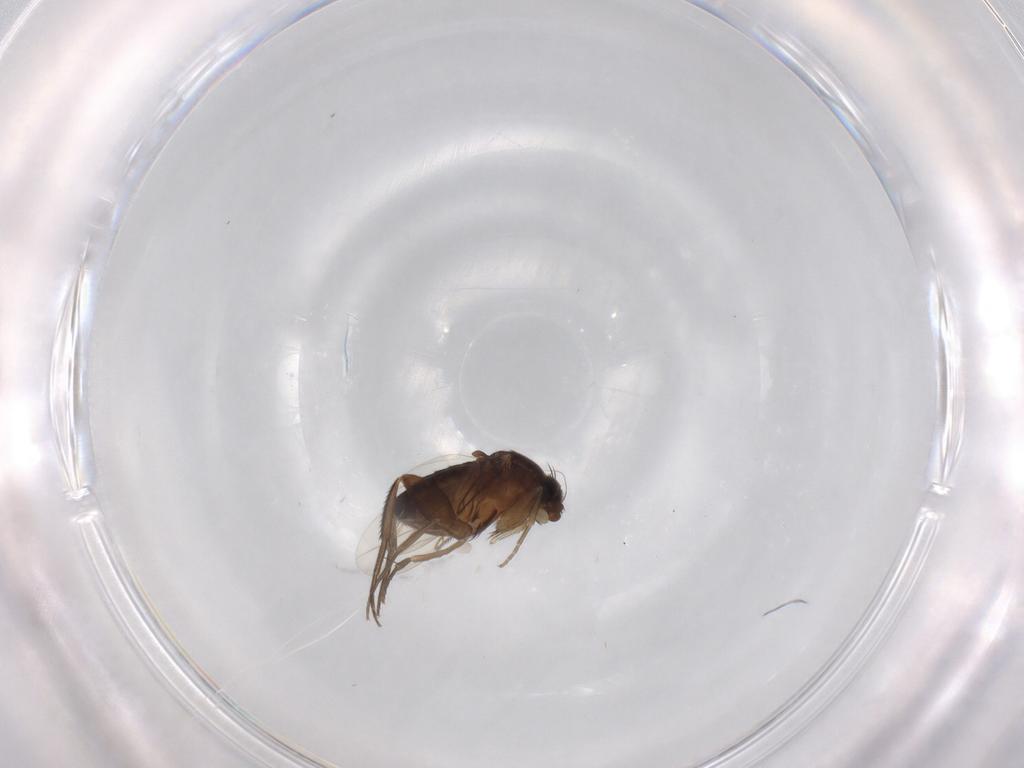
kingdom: Animalia
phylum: Arthropoda
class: Insecta
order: Diptera
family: Phoridae
